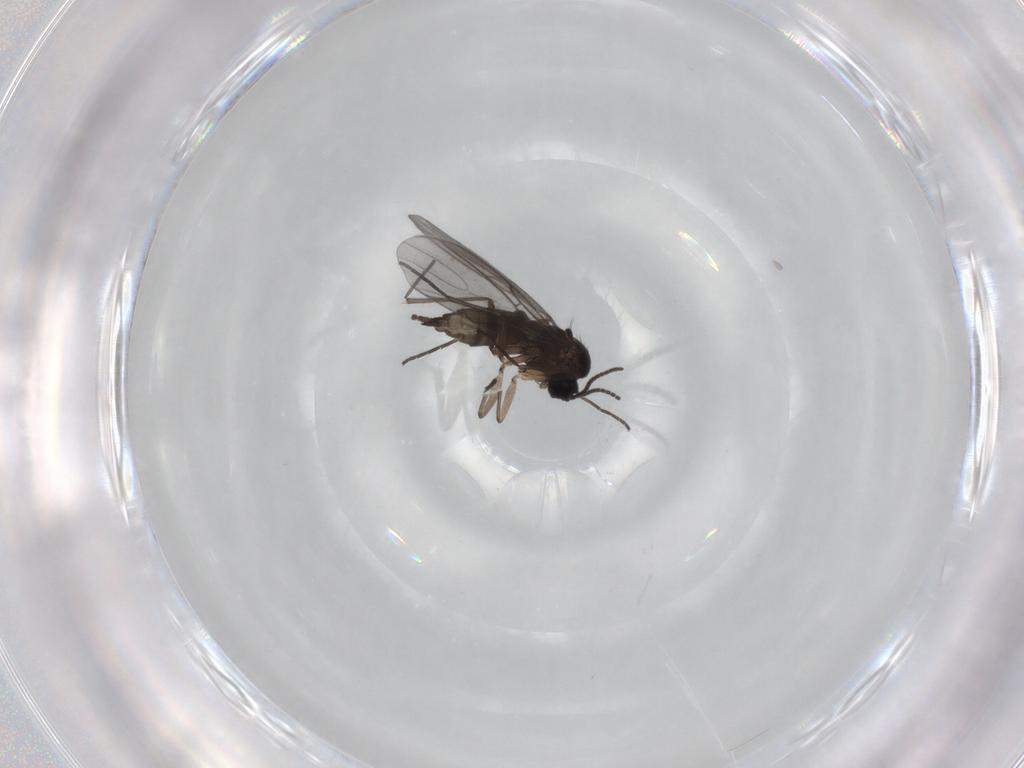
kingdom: Animalia
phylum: Arthropoda
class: Insecta
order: Diptera
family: Sciaridae
